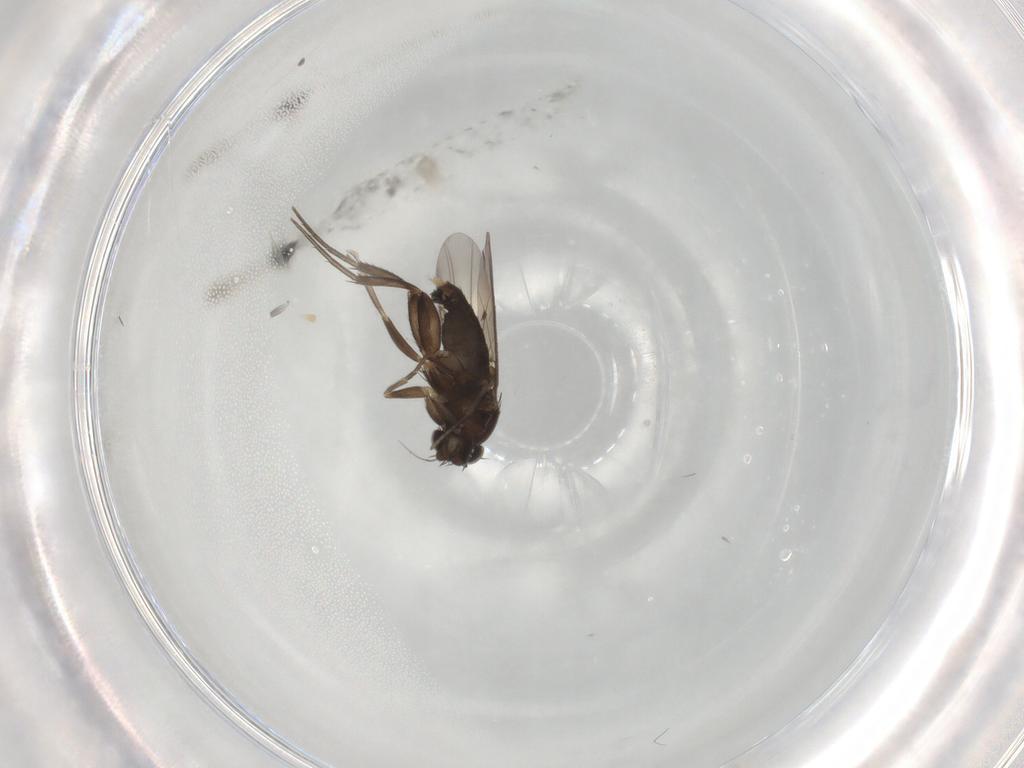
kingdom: Animalia
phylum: Arthropoda
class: Insecta
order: Diptera
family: Phoridae
